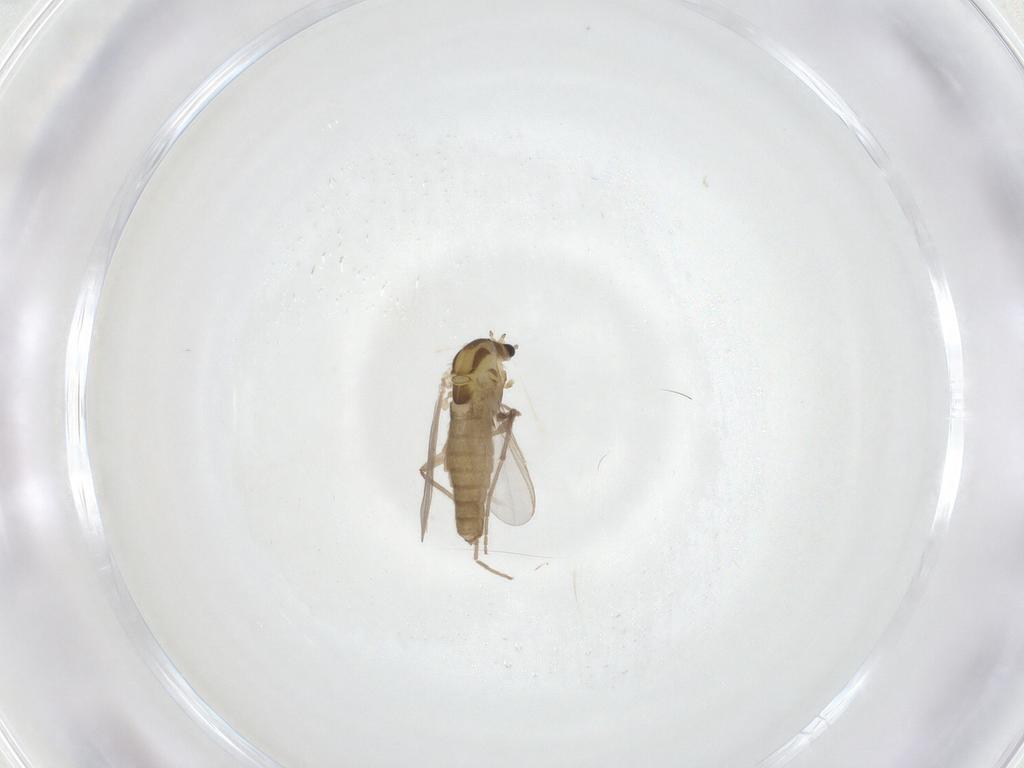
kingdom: Animalia
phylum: Arthropoda
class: Insecta
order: Diptera
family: Chironomidae
